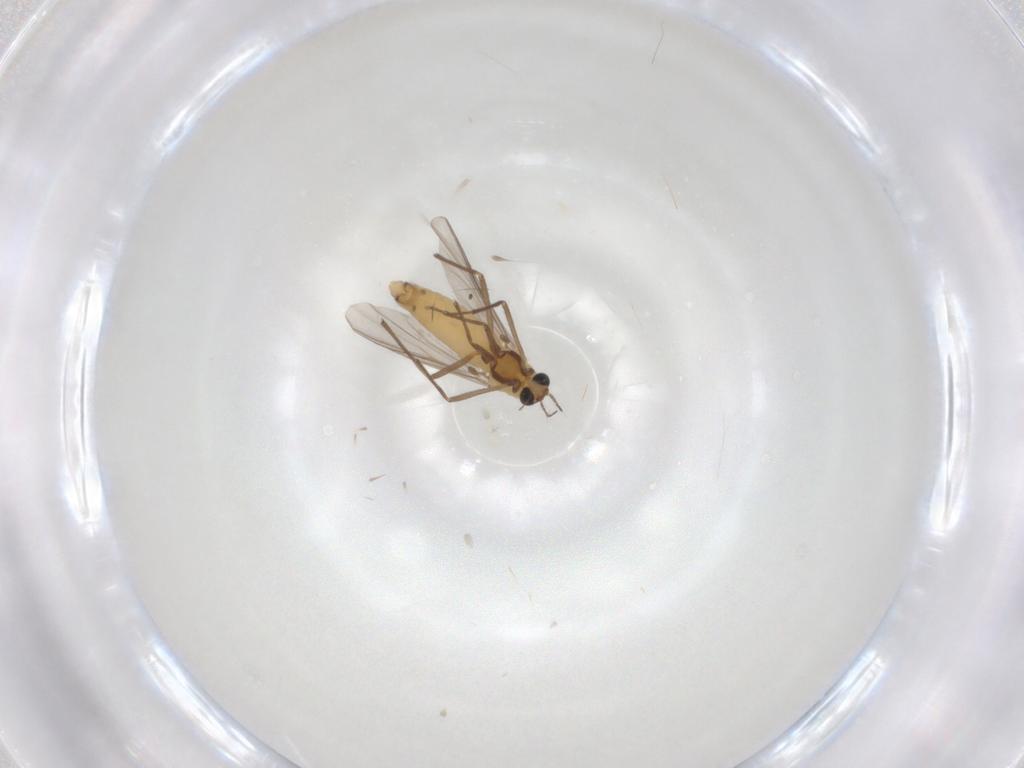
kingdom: Animalia
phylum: Arthropoda
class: Insecta
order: Diptera
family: Chironomidae
